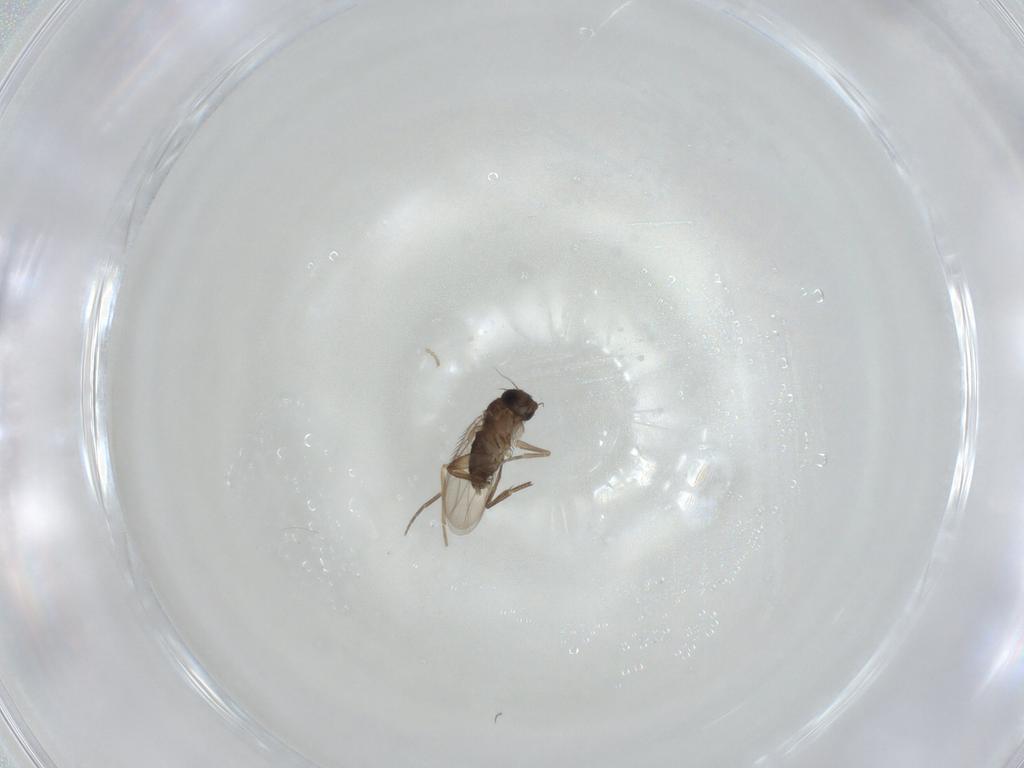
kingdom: Animalia
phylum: Arthropoda
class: Insecta
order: Diptera
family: Phoridae
